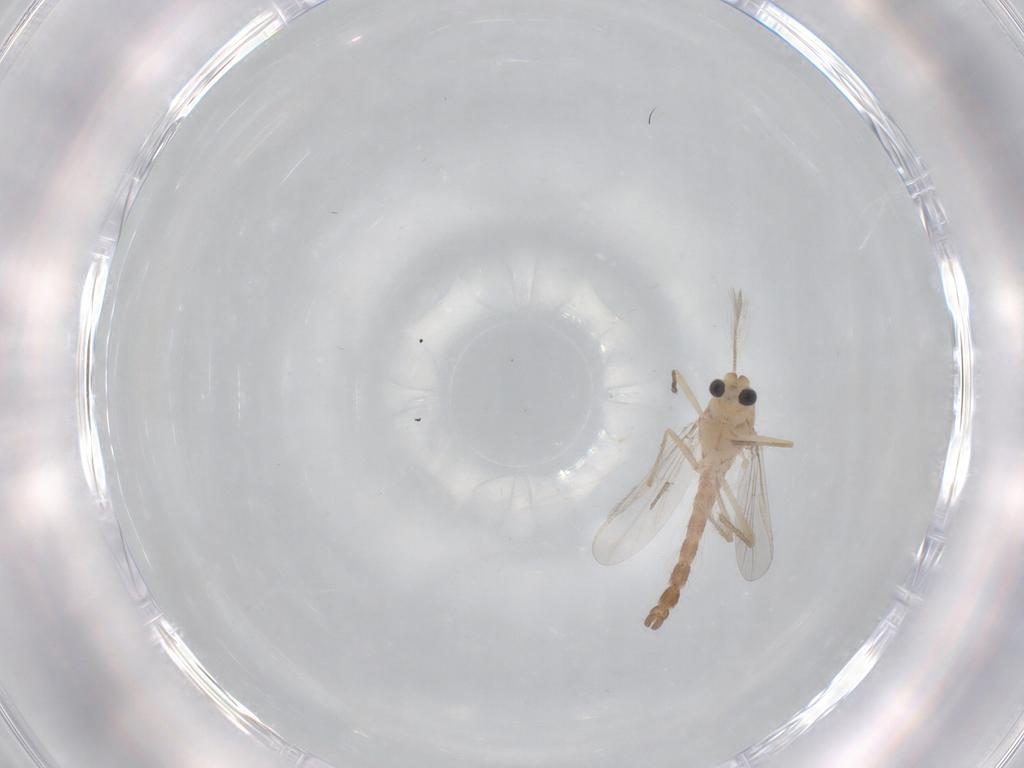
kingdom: Animalia
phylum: Arthropoda
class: Insecta
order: Diptera
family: Chironomidae
